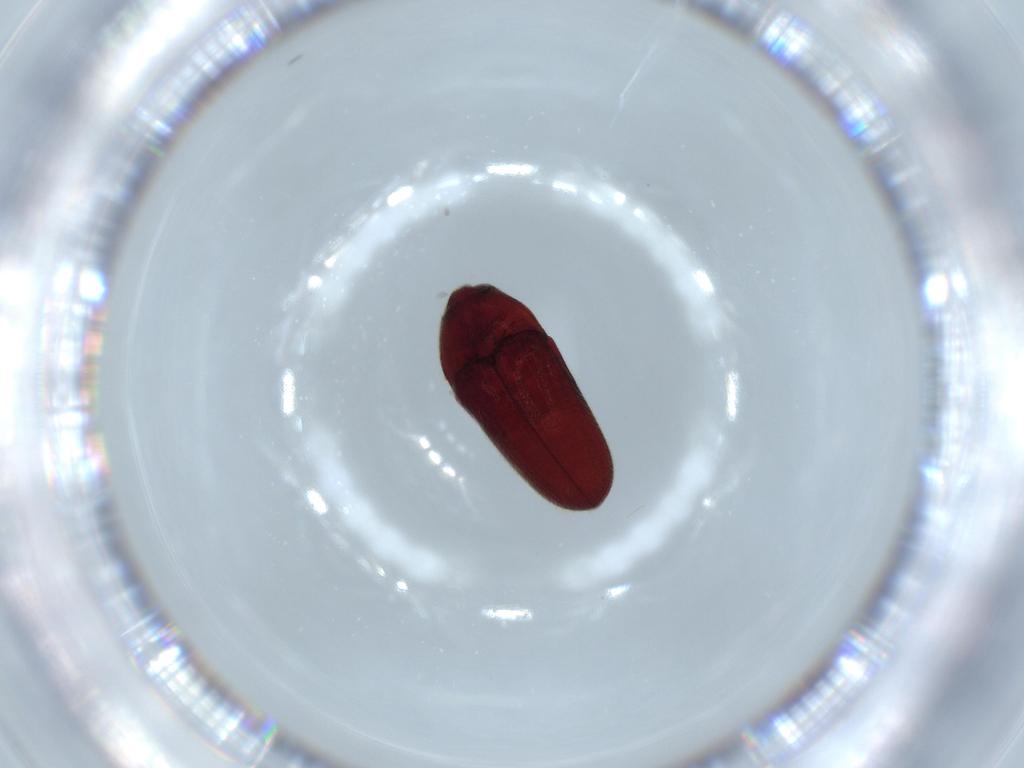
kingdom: Animalia
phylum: Arthropoda
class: Insecta
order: Coleoptera
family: Throscidae
